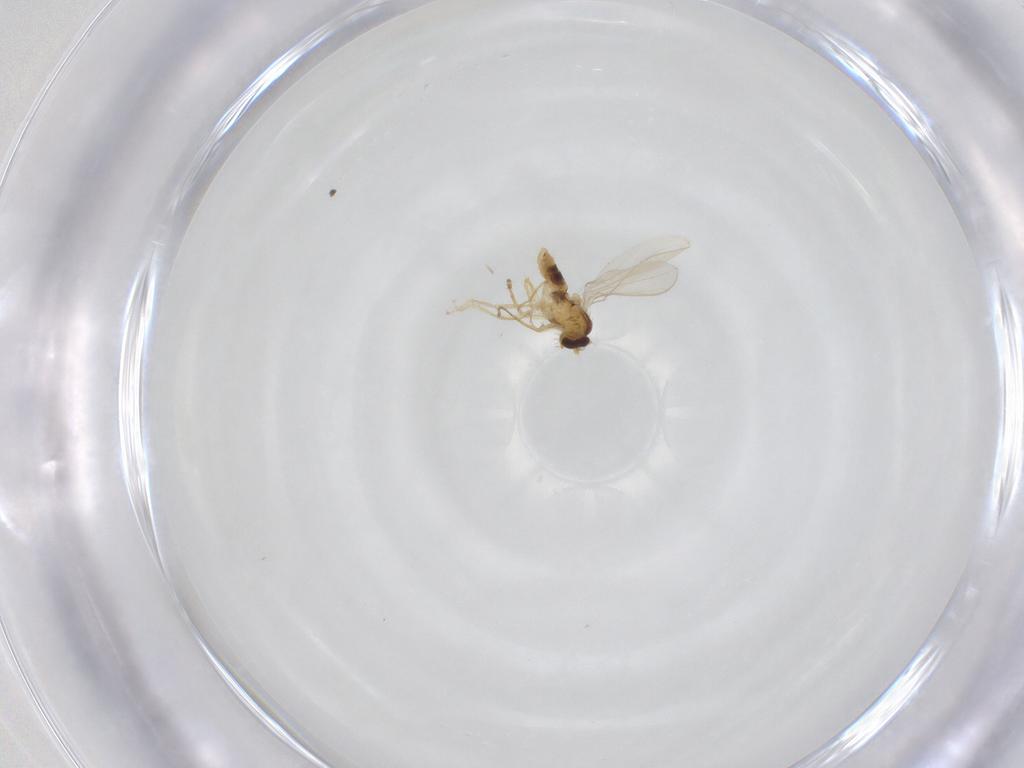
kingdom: Animalia
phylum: Arthropoda
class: Insecta
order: Diptera
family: Periscelididae
